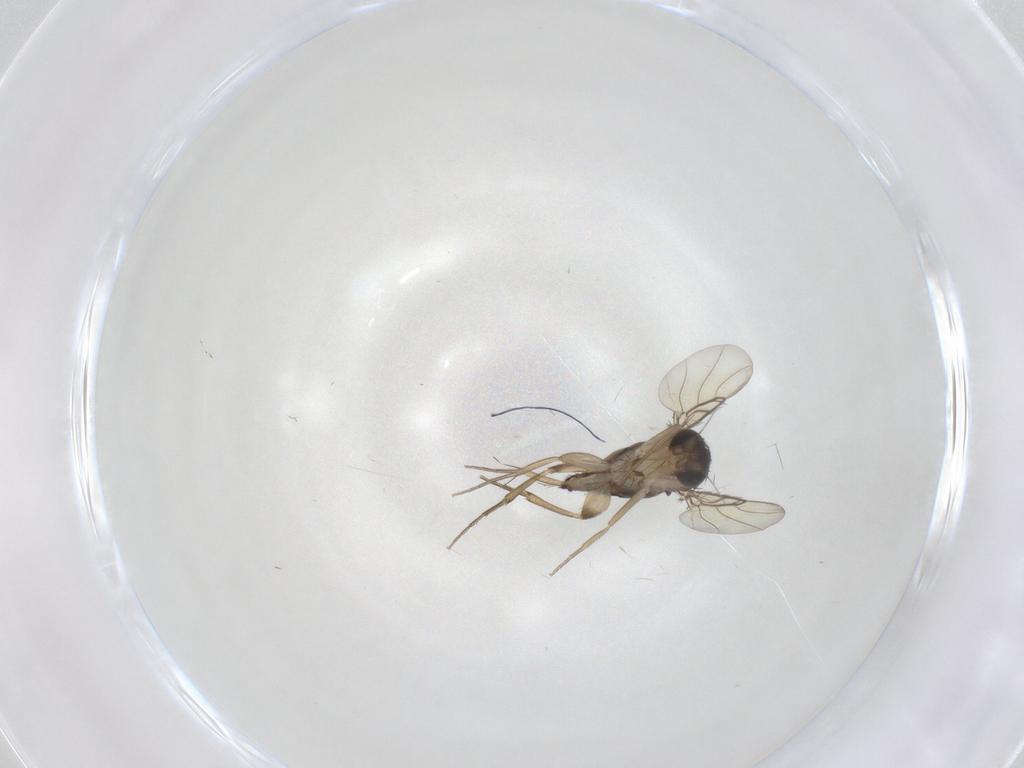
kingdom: Animalia
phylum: Arthropoda
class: Insecta
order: Diptera
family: Phoridae
